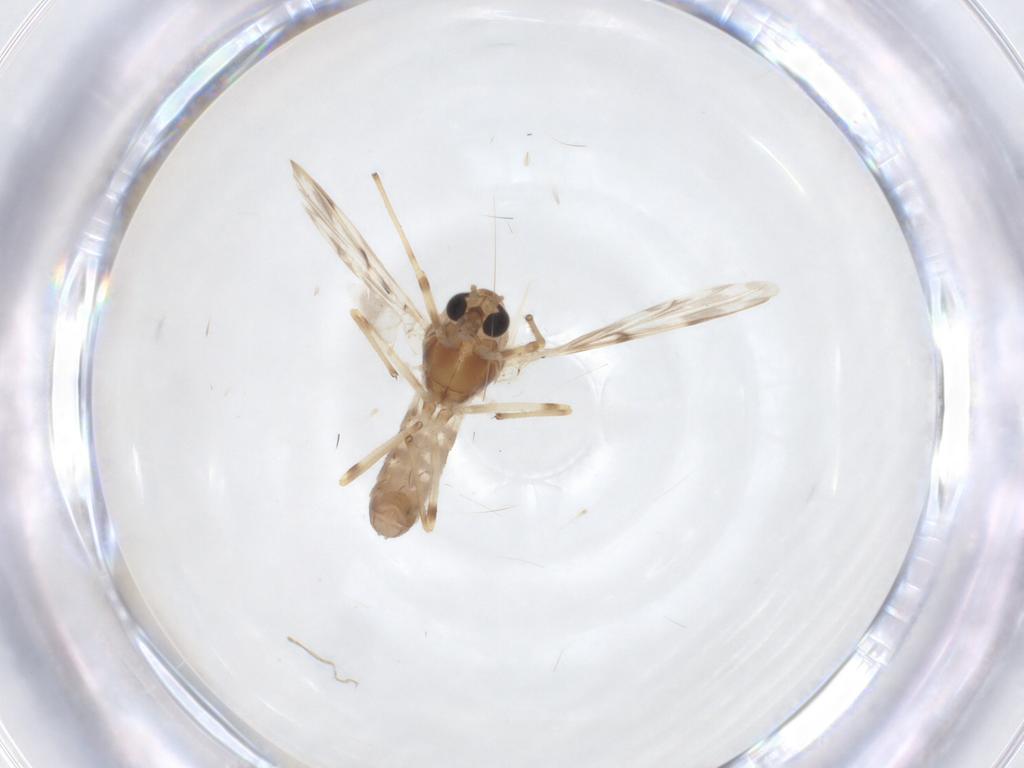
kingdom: Animalia
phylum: Arthropoda
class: Insecta
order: Diptera
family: Chironomidae
